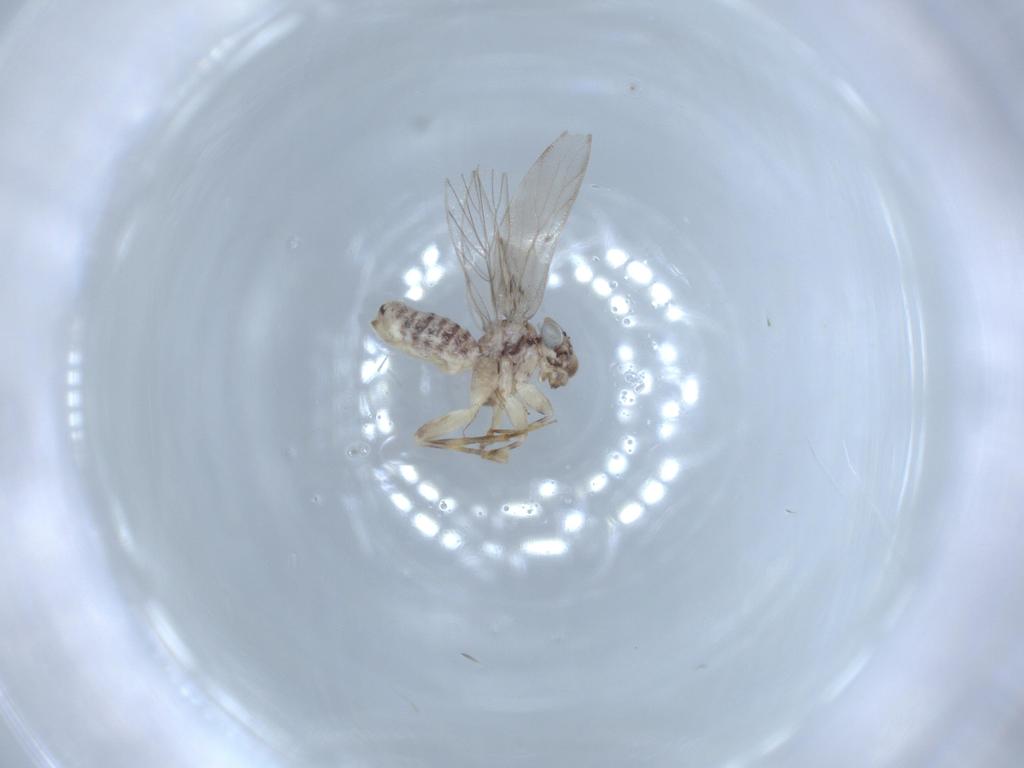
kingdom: Animalia
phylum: Arthropoda
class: Insecta
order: Psocodea
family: Lepidopsocidae
